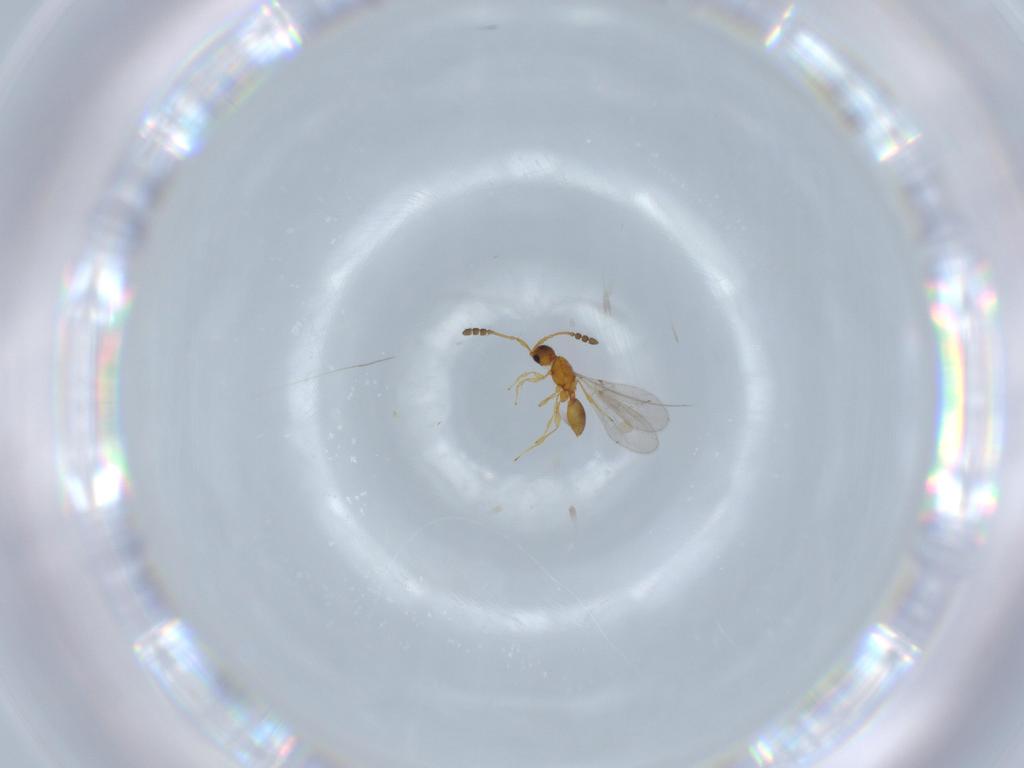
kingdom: Animalia
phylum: Arthropoda
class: Insecta
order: Hymenoptera
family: Diapriidae
